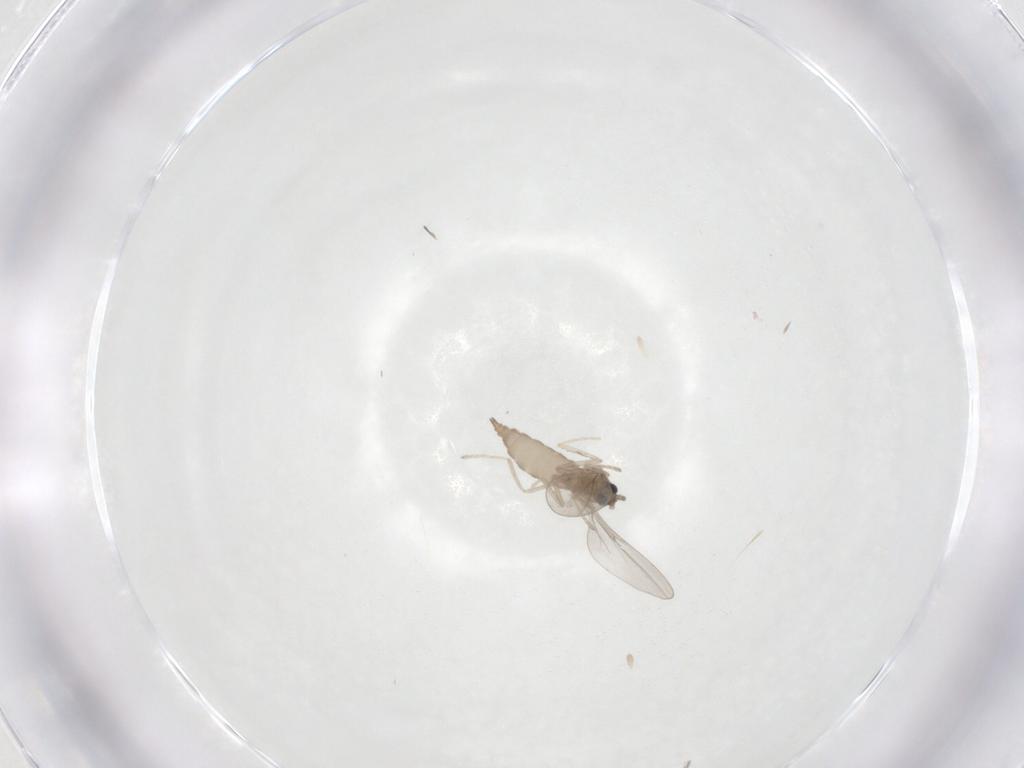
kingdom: Animalia
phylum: Arthropoda
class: Insecta
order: Diptera
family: Cecidomyiidae
